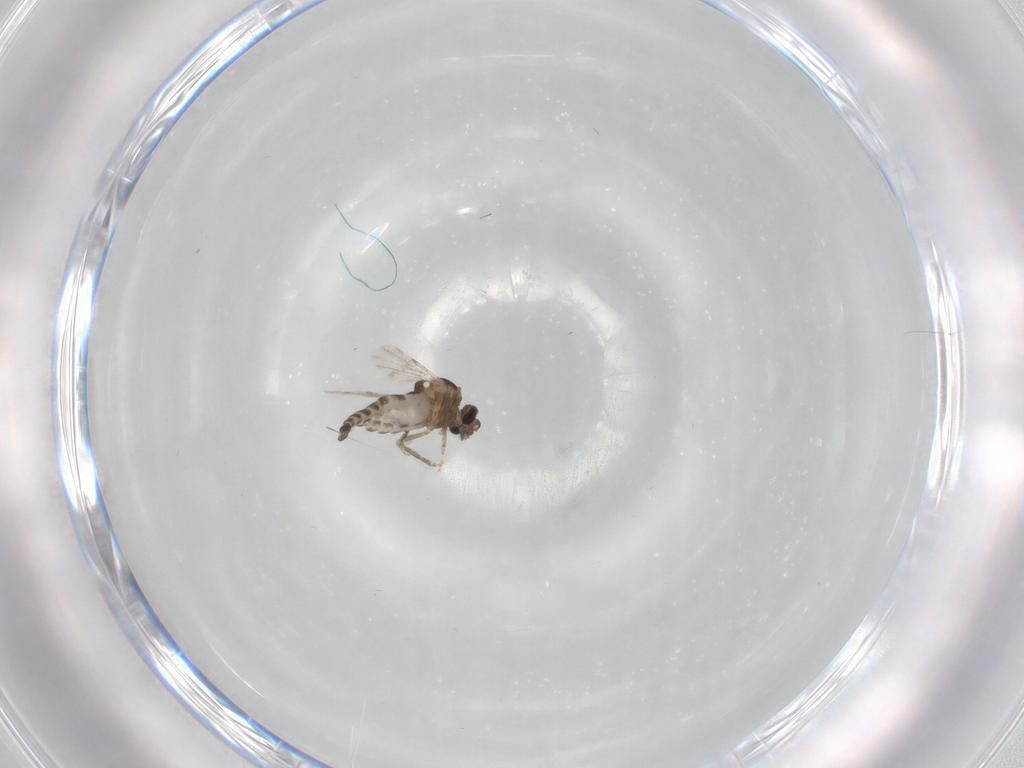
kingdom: Animalia
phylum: Arthropoda
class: Insecta
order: Diptera
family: Ceratopogonidae
